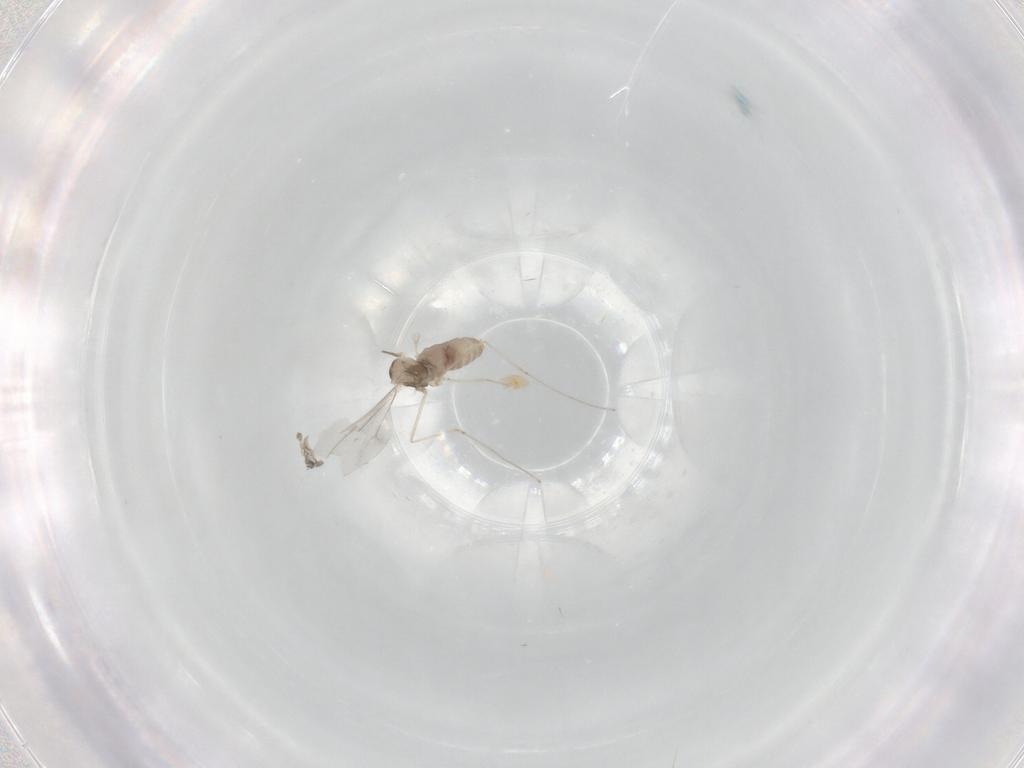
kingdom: Animalia
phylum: Arthropoda
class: Insecta
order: Diptera
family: Cecidomyiidae
